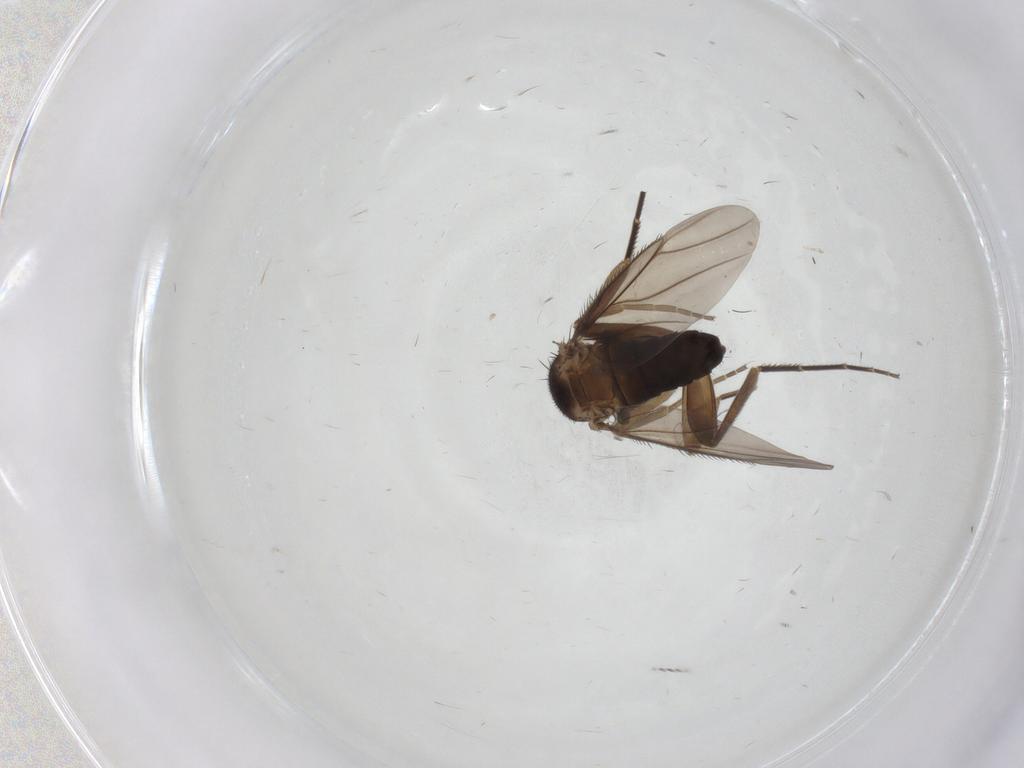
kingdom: Animalia
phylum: Arthropoda
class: Insecta
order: Diptera
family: Phoridae
